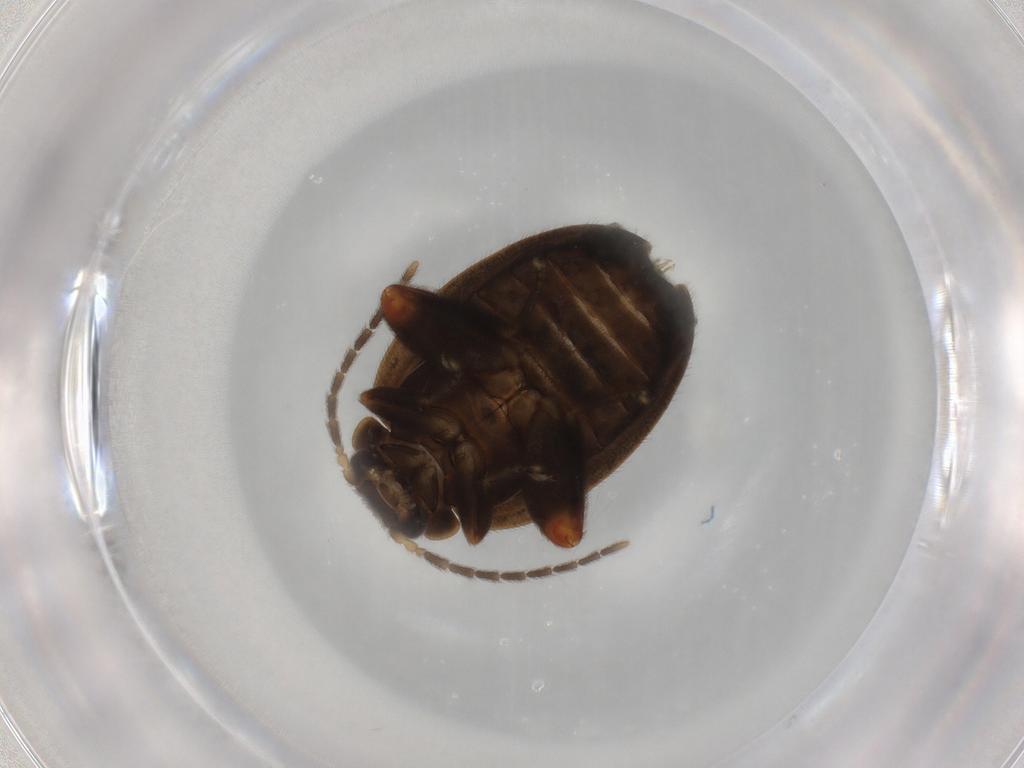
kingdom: Animalia
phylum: Arthropoda
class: Insecta
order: Coleoptera
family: Scirtidae
